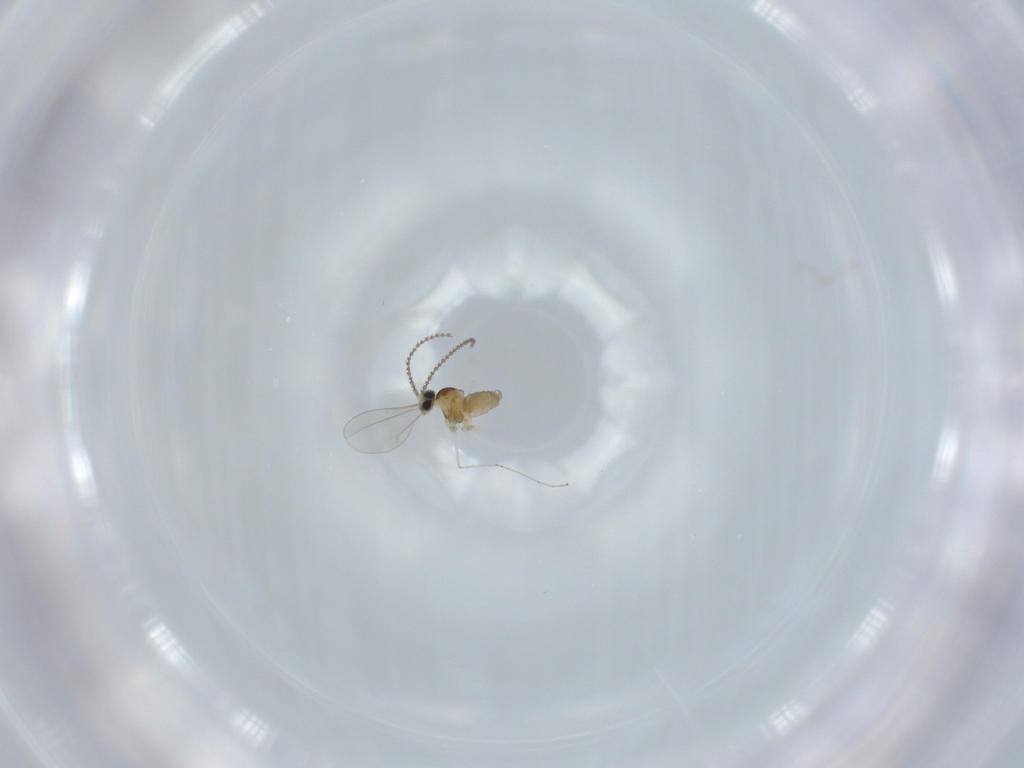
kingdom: Animalia
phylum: Arthropoda
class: Insecta
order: Diptera
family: Cecidomyiidae
